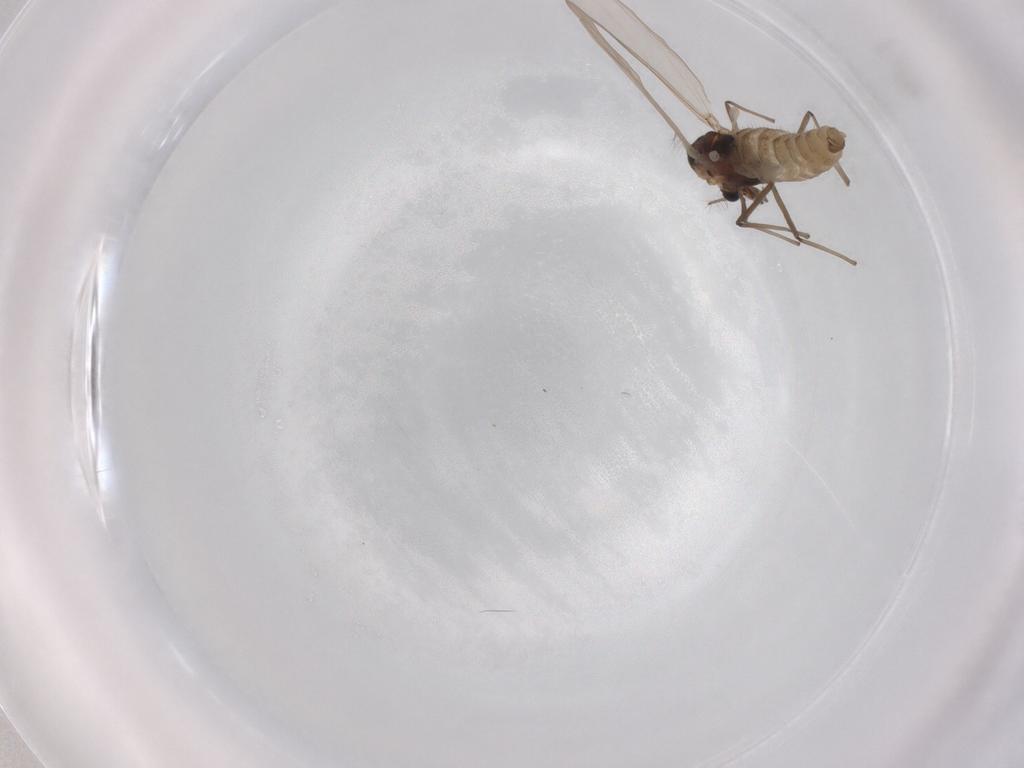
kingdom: Animalia
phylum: Arthropoda
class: Insecta
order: Diptera
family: Chironomidae
